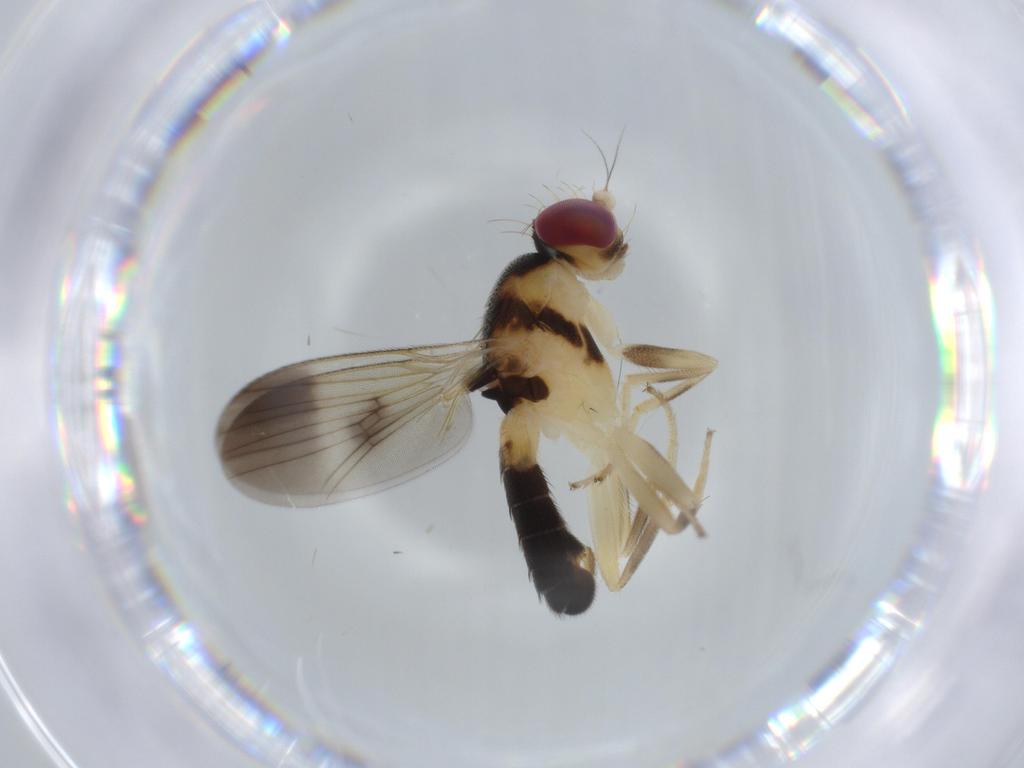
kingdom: Animalia
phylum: Arthropoda
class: Insecta
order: Diptera
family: Clusiidae
